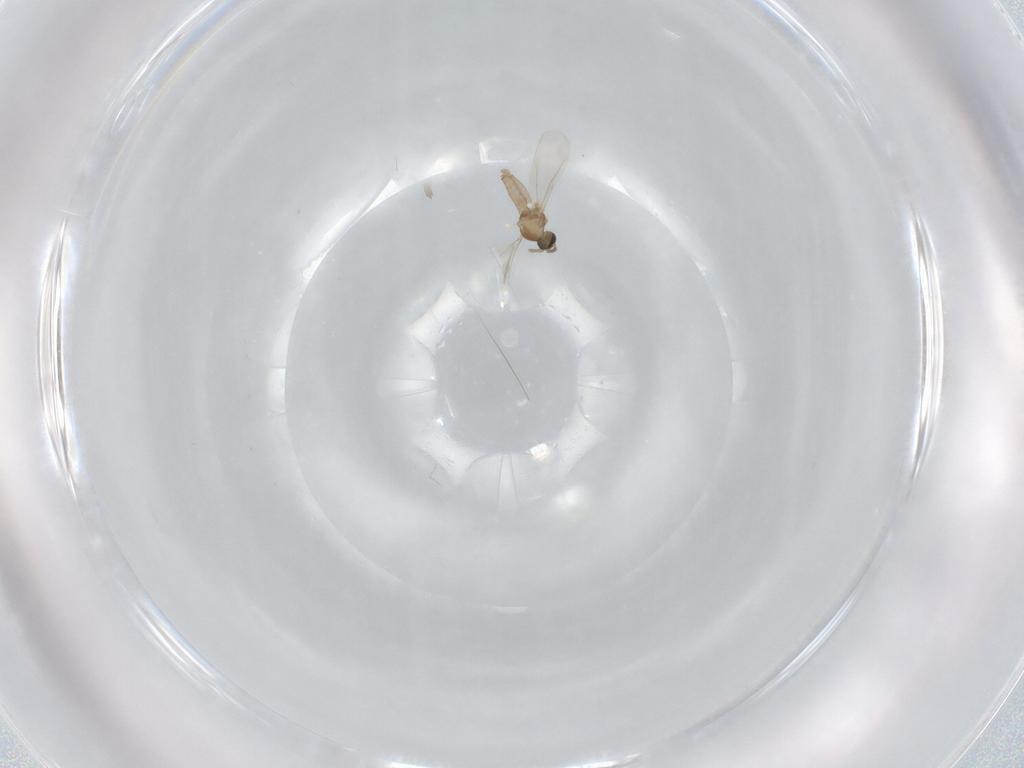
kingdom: Animalia
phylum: Arthropoda
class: Insecta
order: Diptera
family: Cecidomyiidae
